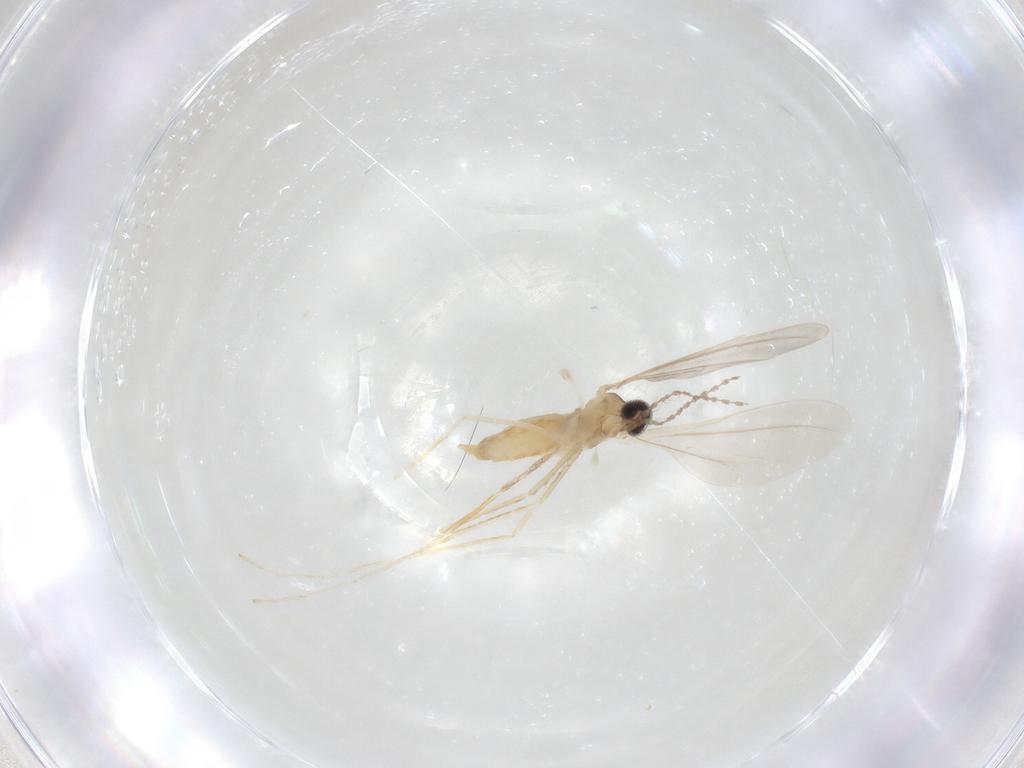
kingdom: Animalia
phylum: Arthropoda
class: Insecta
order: Diptera
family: Cecidomyiidae
